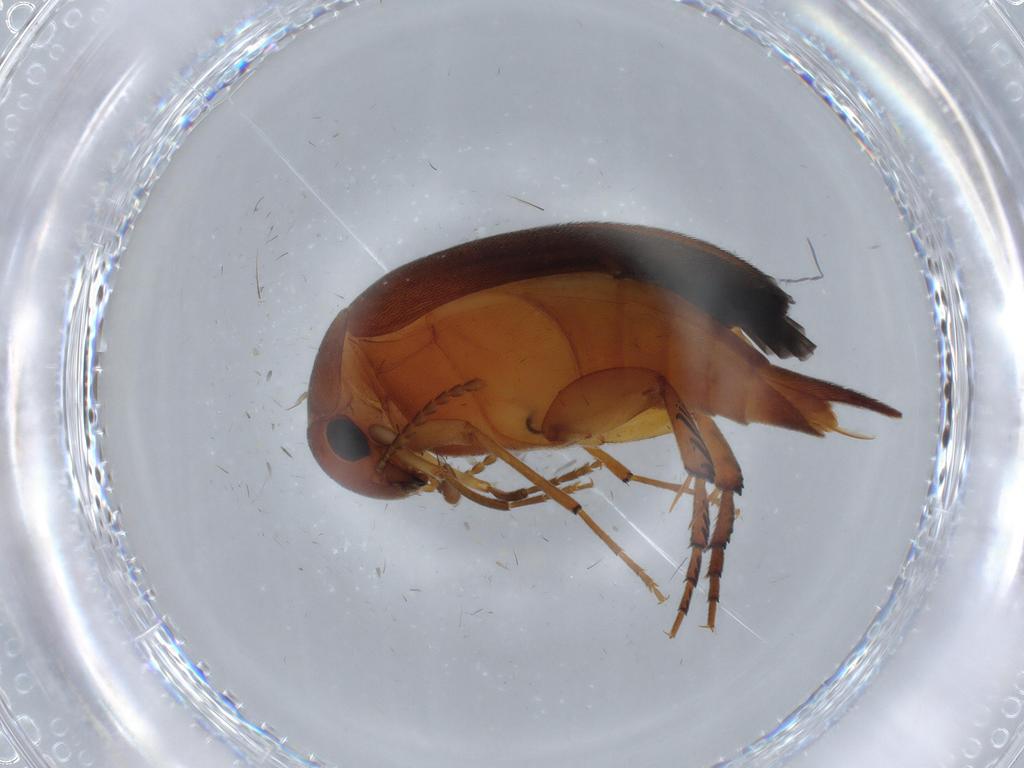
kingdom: Animalia
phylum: Arthropoda
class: Insecta
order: Coleoptera
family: Mordellidae
